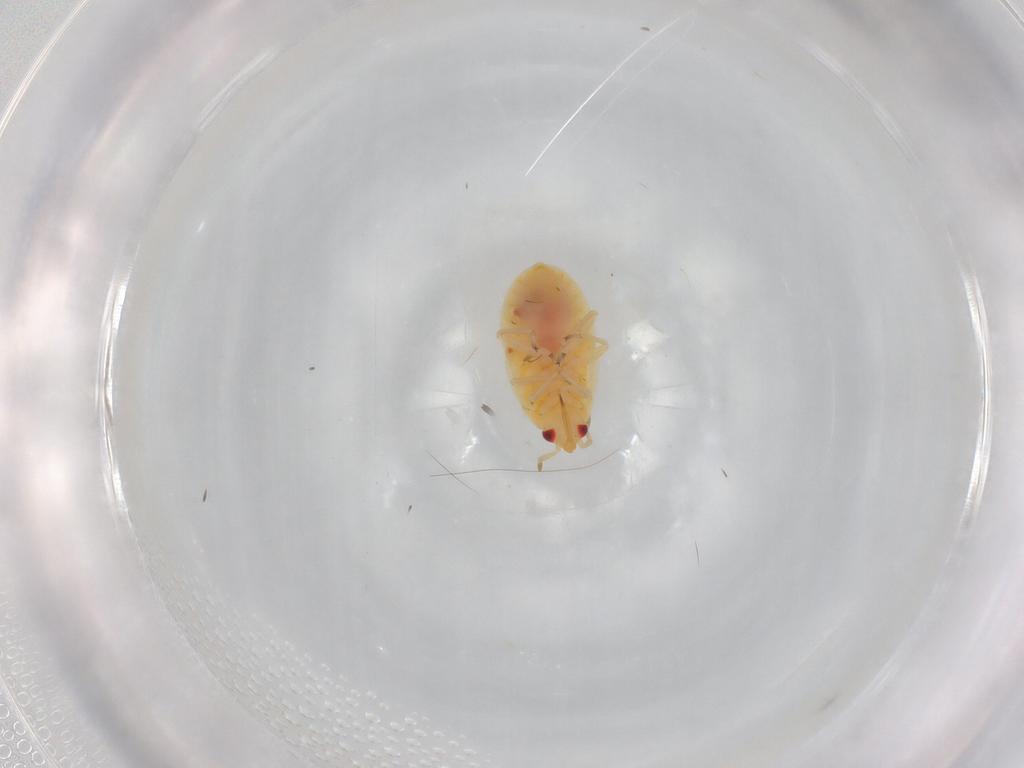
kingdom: Animalia
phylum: Arthropoda
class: Insecta
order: Hemiptera
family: Anthocoridae
